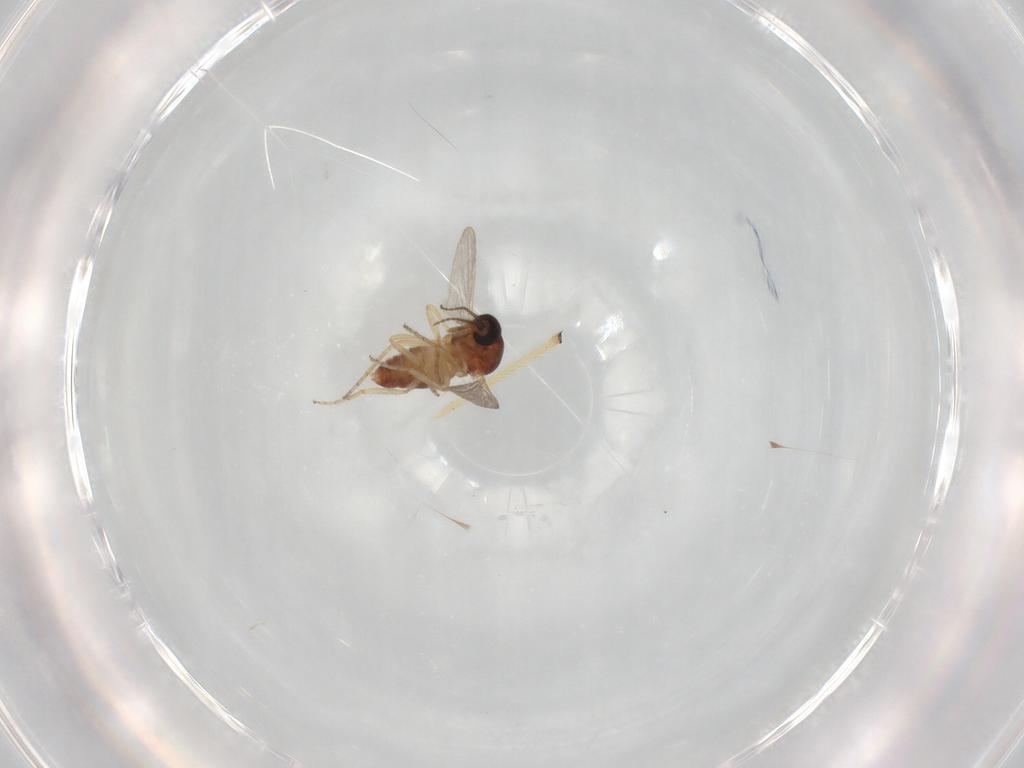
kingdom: Animalia
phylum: Arthropoda
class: Insecta
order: Diptera
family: Ceratopogonidae
